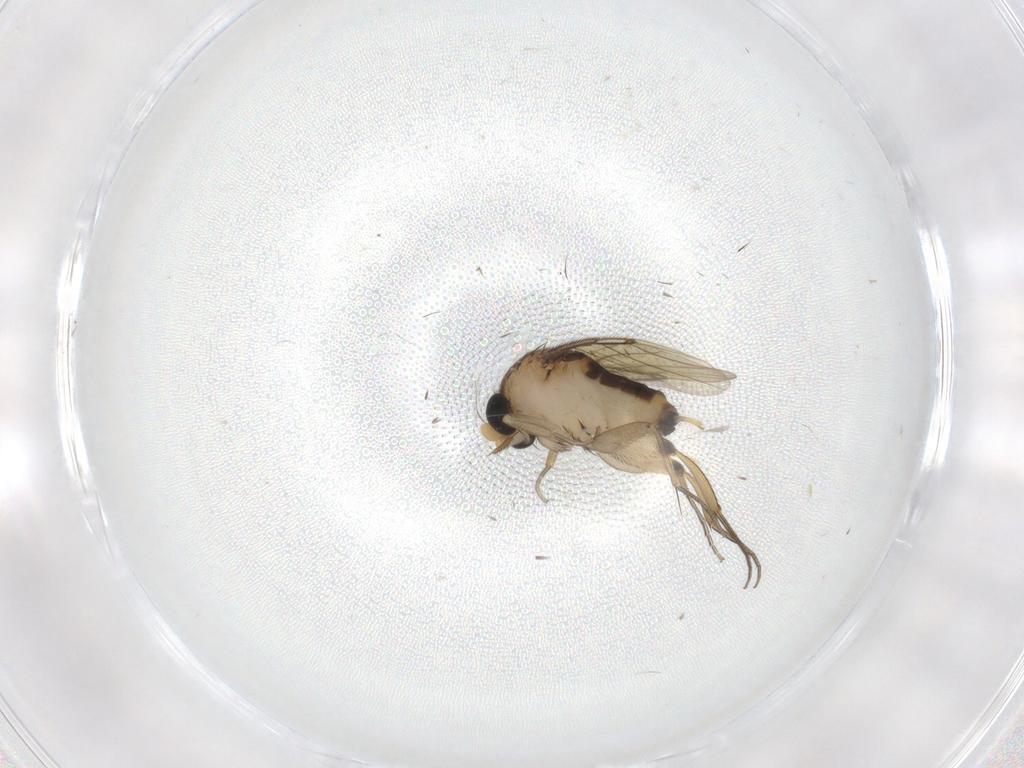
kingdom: Animalia
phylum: Arthropoda
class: Insecta
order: Diptera
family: Phoridae
